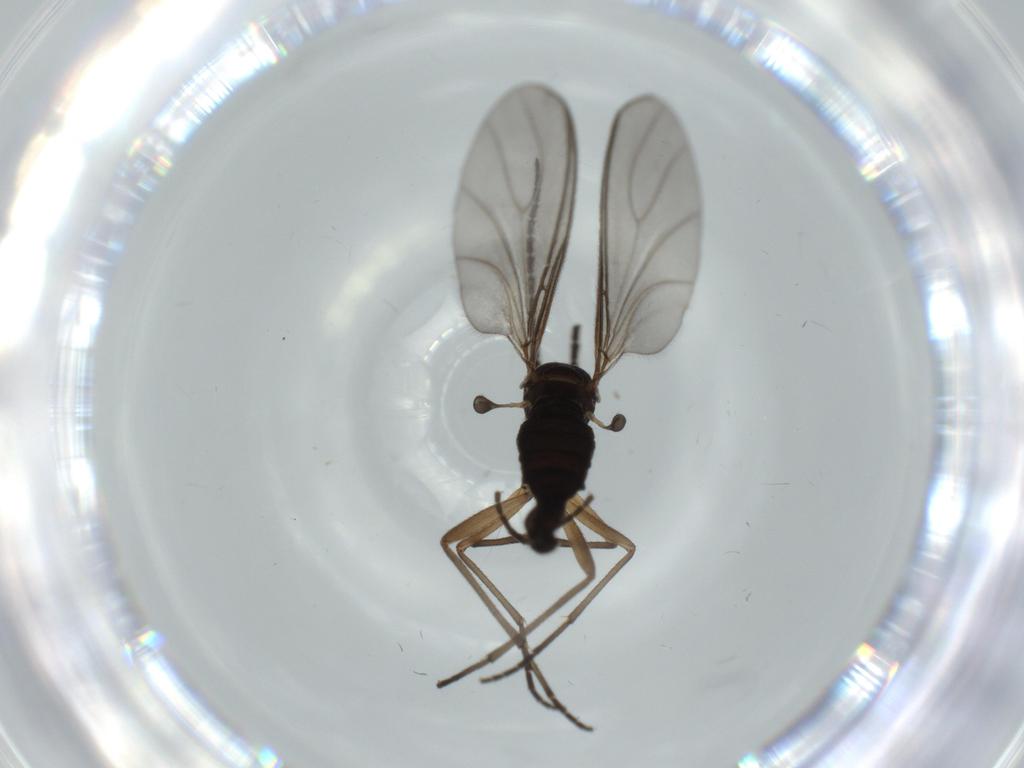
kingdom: Animalia
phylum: Arthropoda
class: Insecta
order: Diptera
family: Sciaridae
